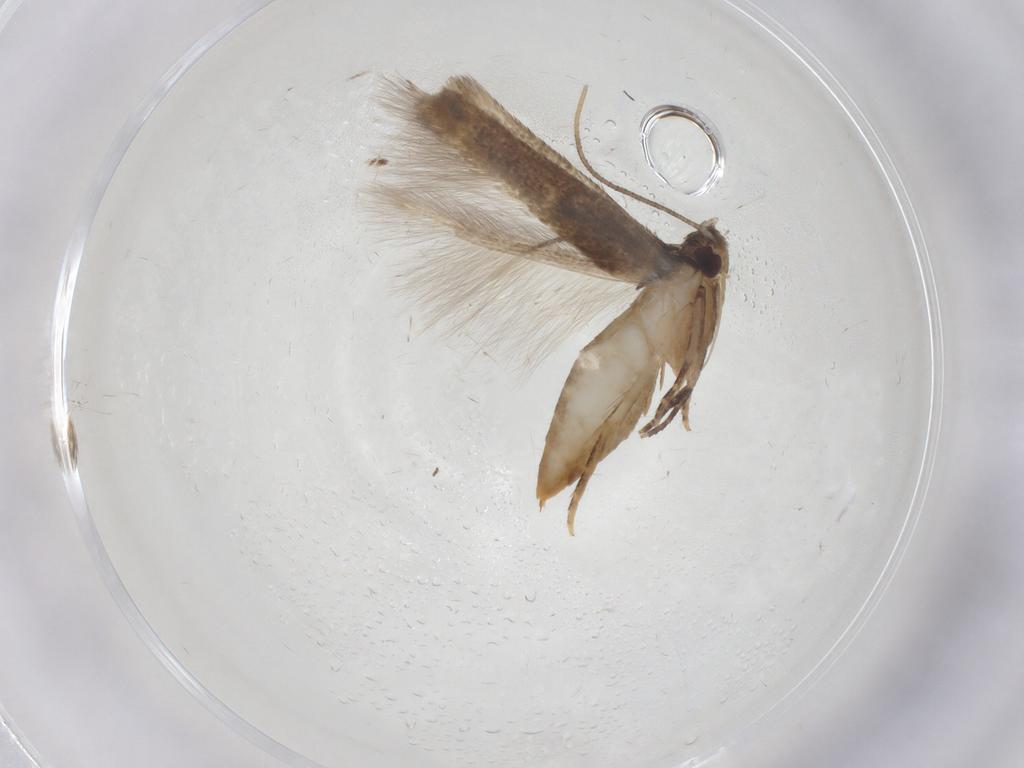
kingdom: Animalia
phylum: Arthropoda
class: Insecta
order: Lepidoptera
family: Cosmopterigidae
